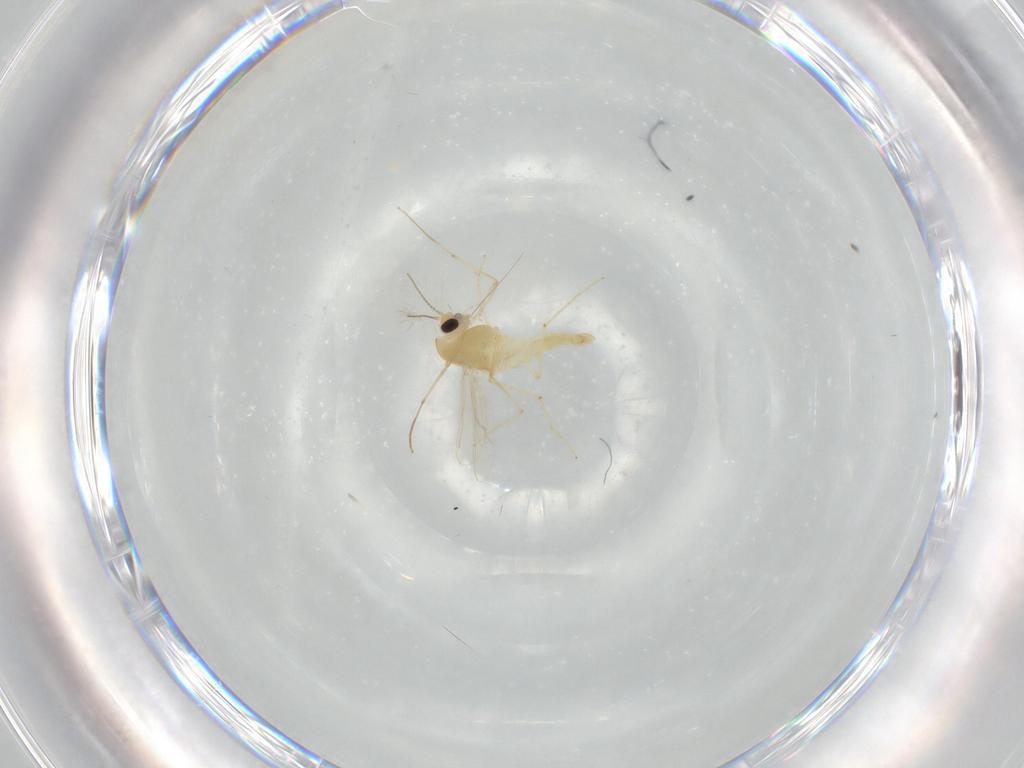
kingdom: Animalia
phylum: Arthropoda
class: Insecta
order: Diptera
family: Chironomidae
